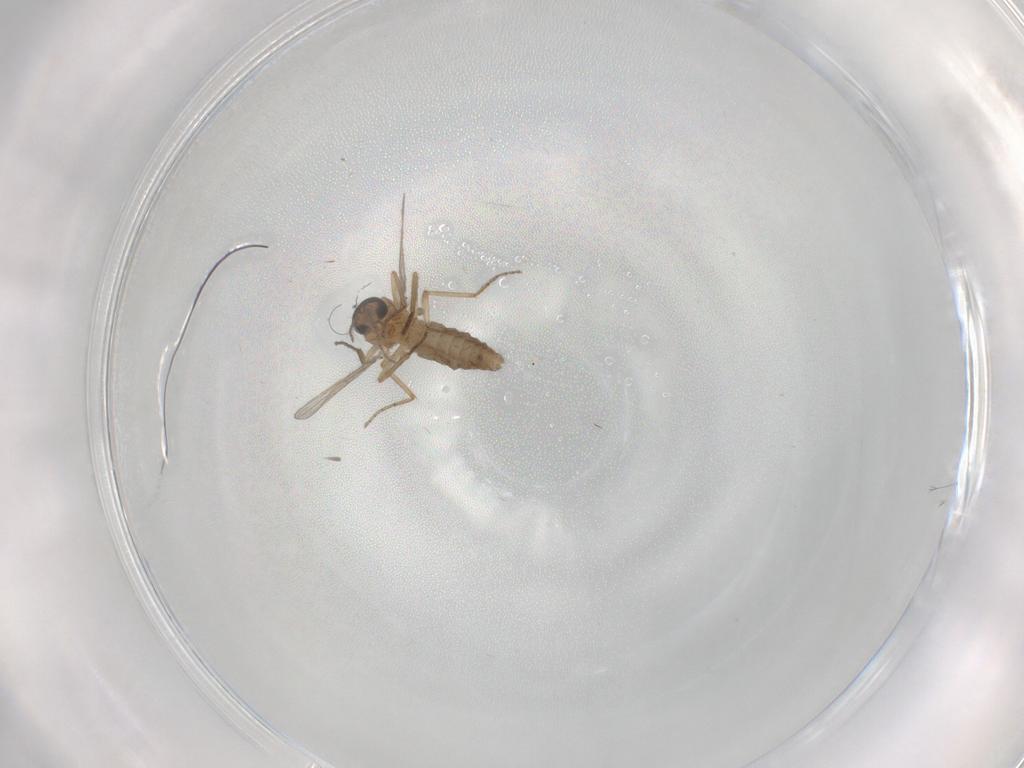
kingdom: Animalia
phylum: Arthropoda
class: Insecta
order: Diptera
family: Ceratopogonidae
